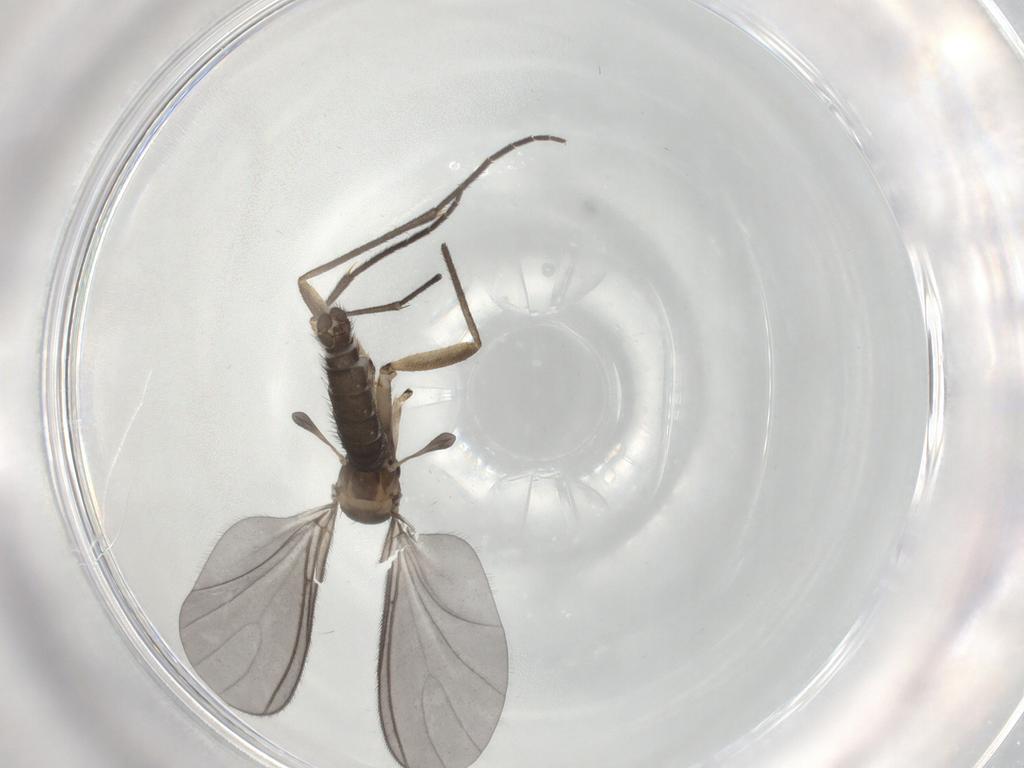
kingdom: Animalia
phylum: Arthropoda
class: Insecta
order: Diptera
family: Sciaridae
